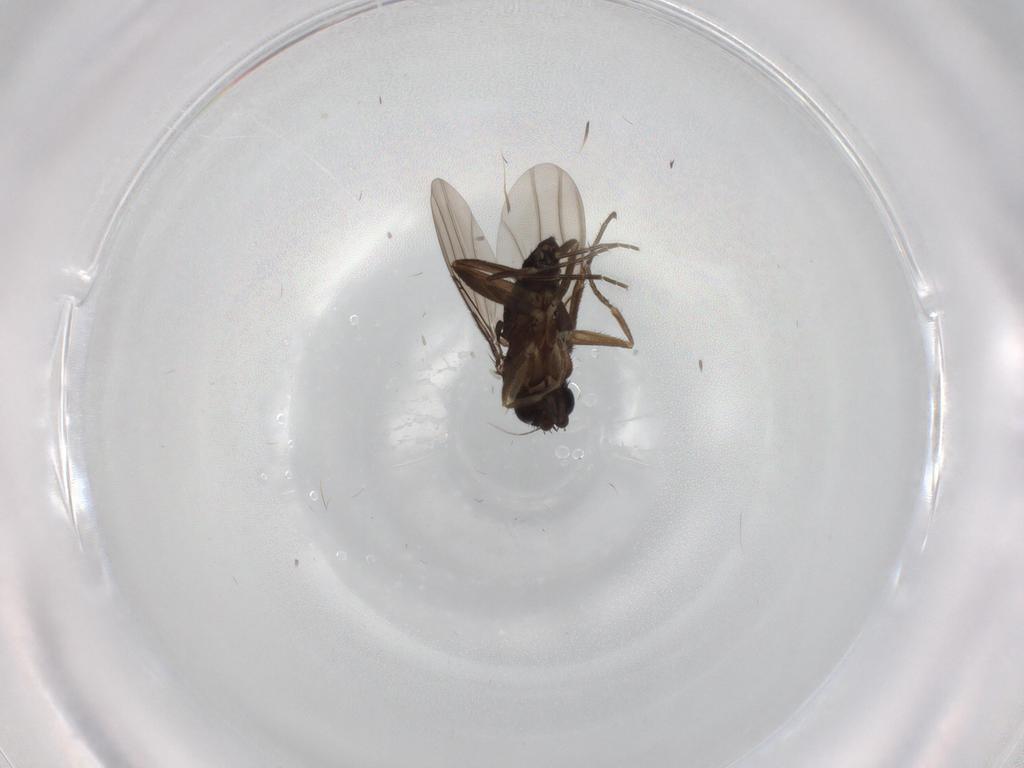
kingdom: Animalia
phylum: Arthropoda
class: Insecta
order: Diptera
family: Phoridae
